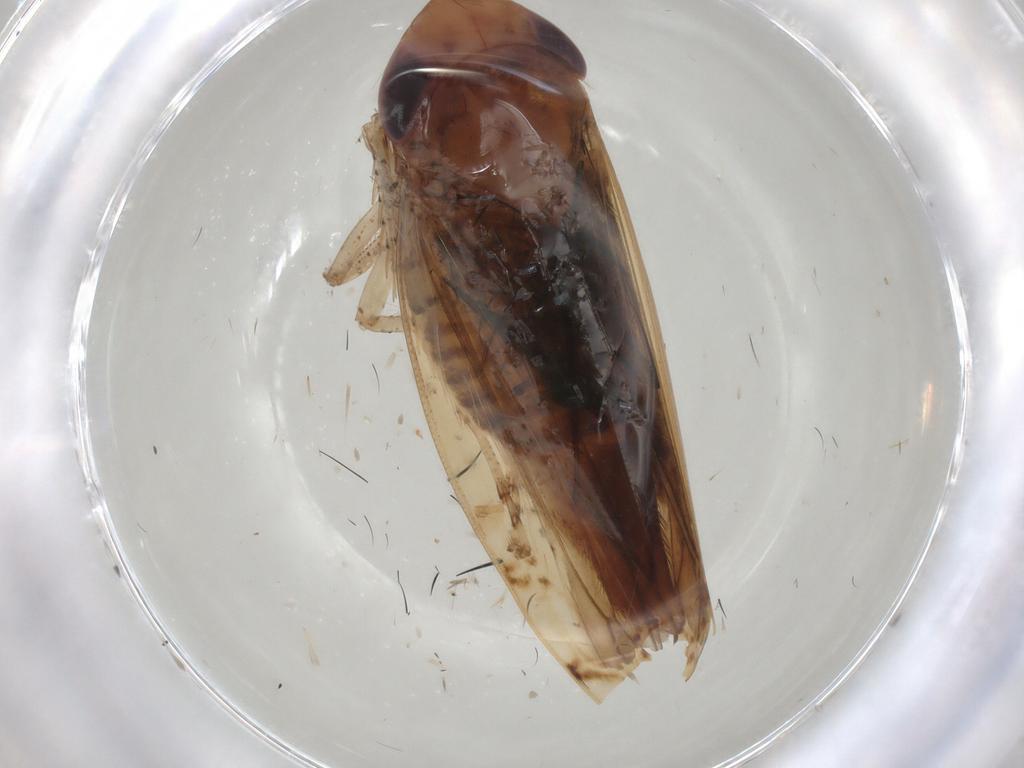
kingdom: Animalia
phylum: Arthropoda
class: Insecta
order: Hemiptera
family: Cicadellidae
